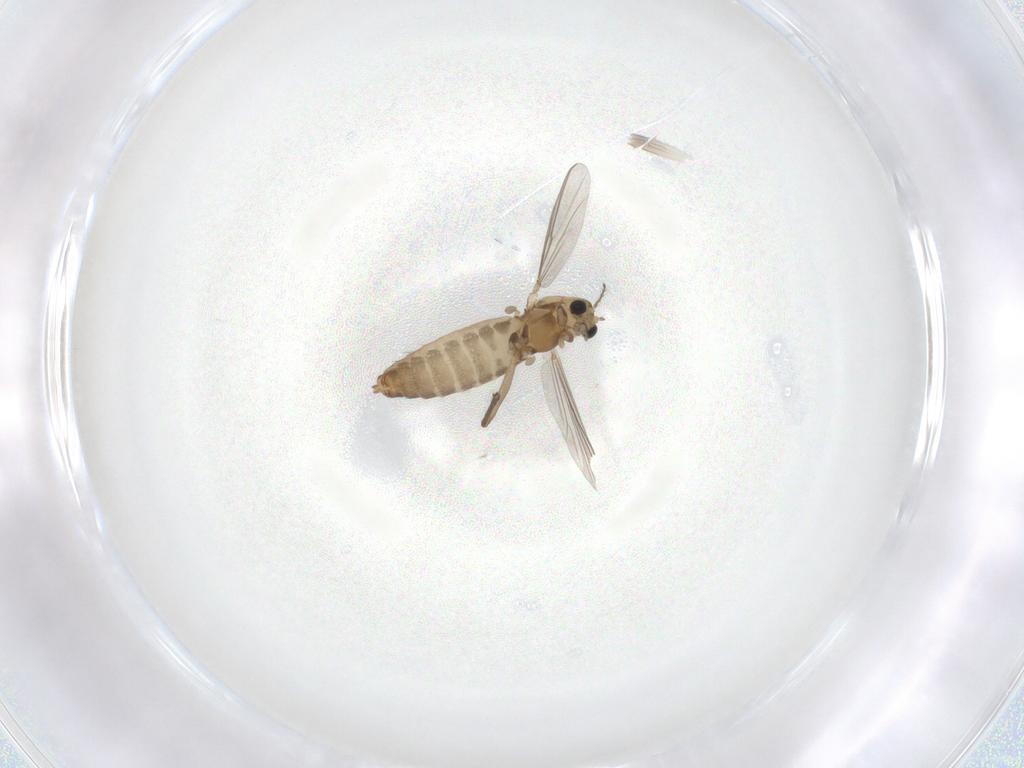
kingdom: Animalia
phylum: Arthropoda
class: Insecta
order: Diptera
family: Chironomidae
